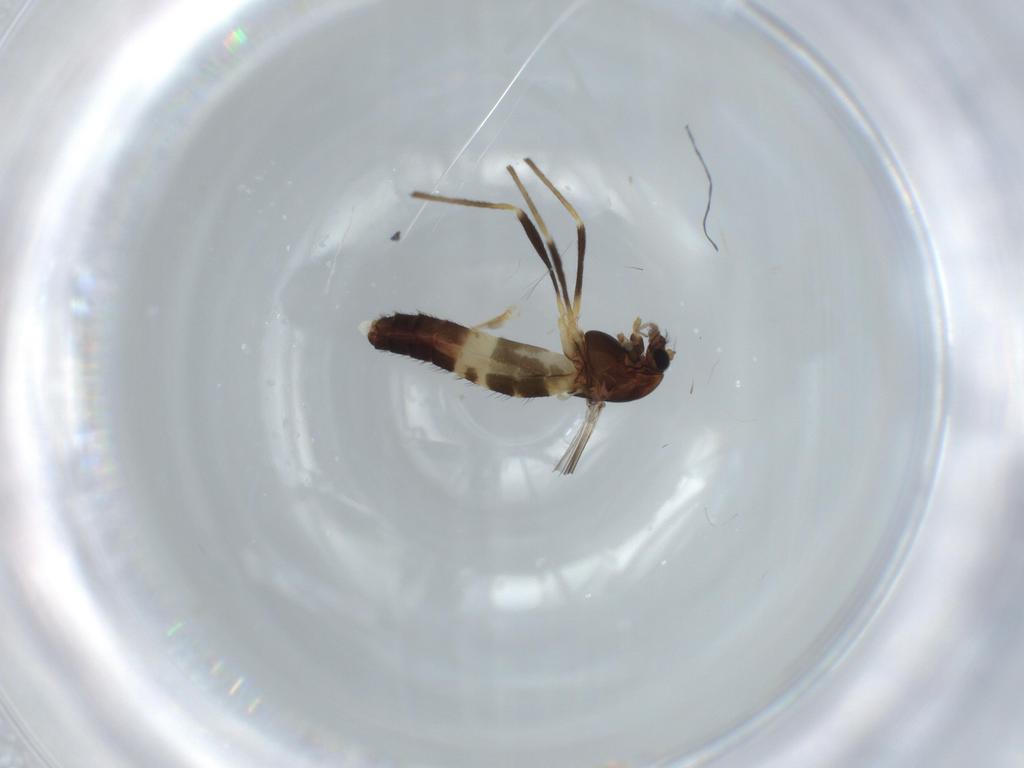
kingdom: Animalia
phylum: Arthropoda
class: Insecta
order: Diptera
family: Chironomidae
